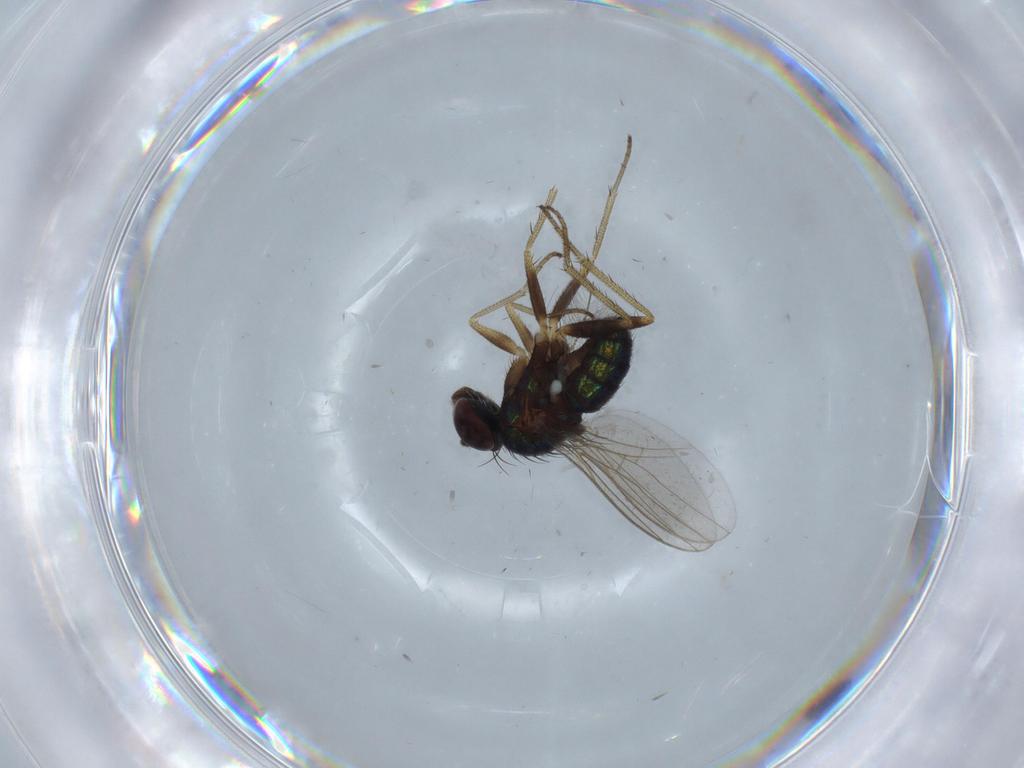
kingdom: Animalia
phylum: Arthropoda
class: Insecta
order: Diptera
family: Chironomidae
